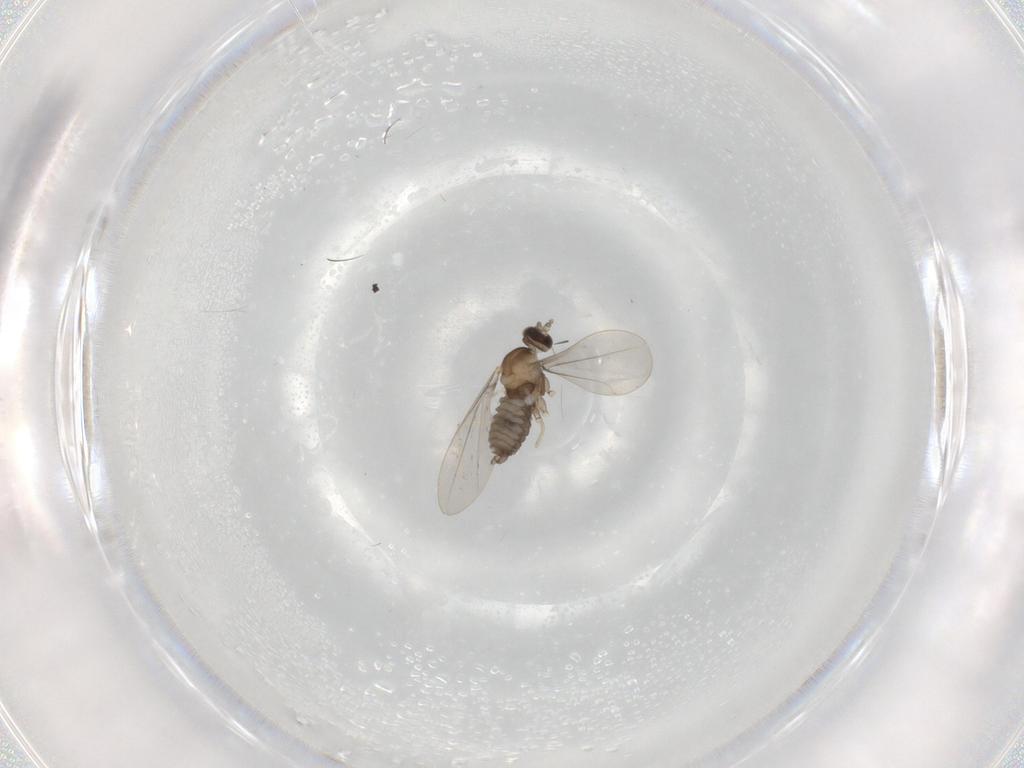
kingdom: Animalia
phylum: Arthropoda
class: Insecta
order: Diptera
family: Cecidomyiidae
